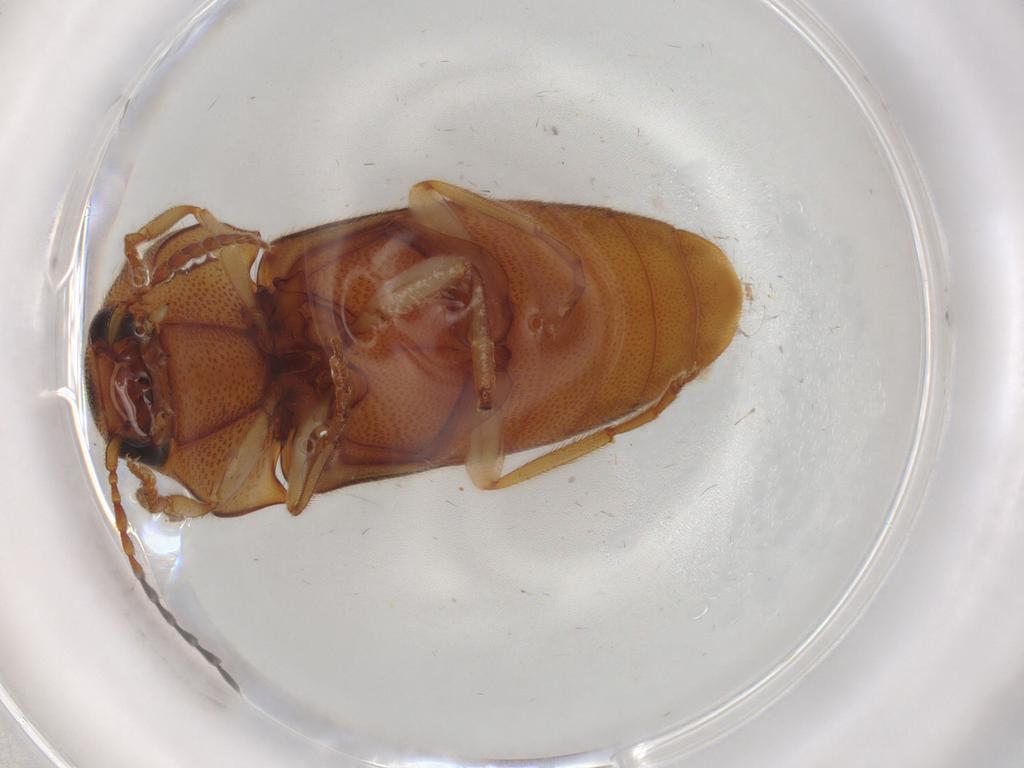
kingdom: Animalia
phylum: Arthropoda
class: Insecta
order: Coleoptera
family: Elateridae
